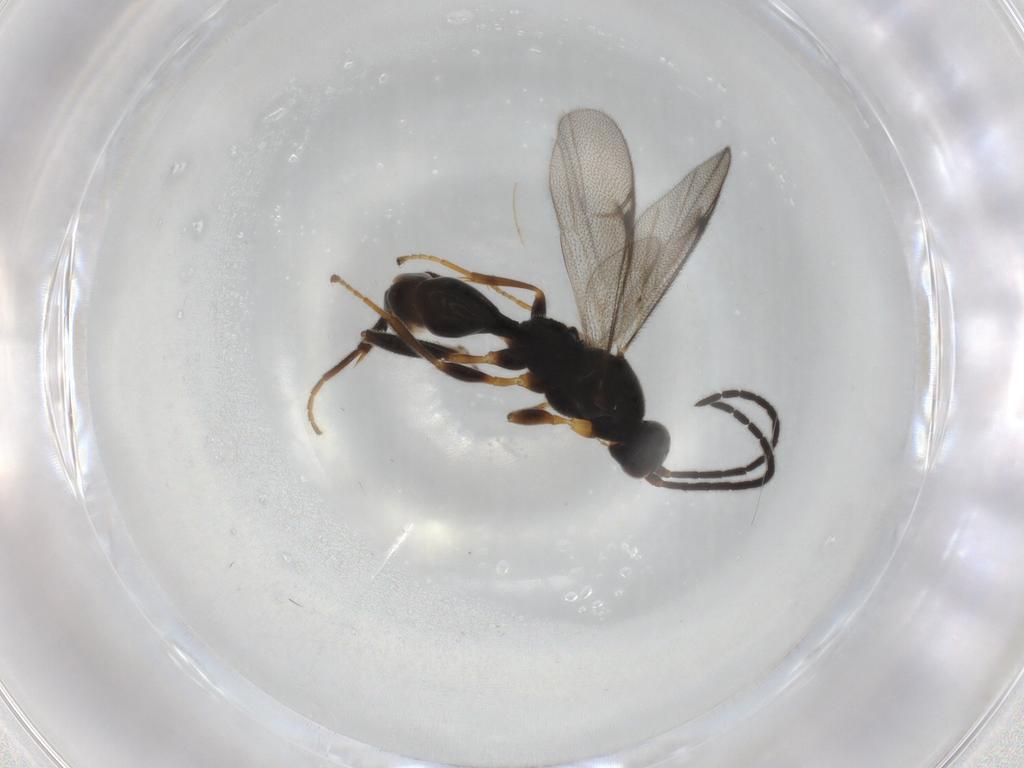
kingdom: Animalia
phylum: Arthropoda
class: Insecta
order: Hymenoptera
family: Proctotrupidae
